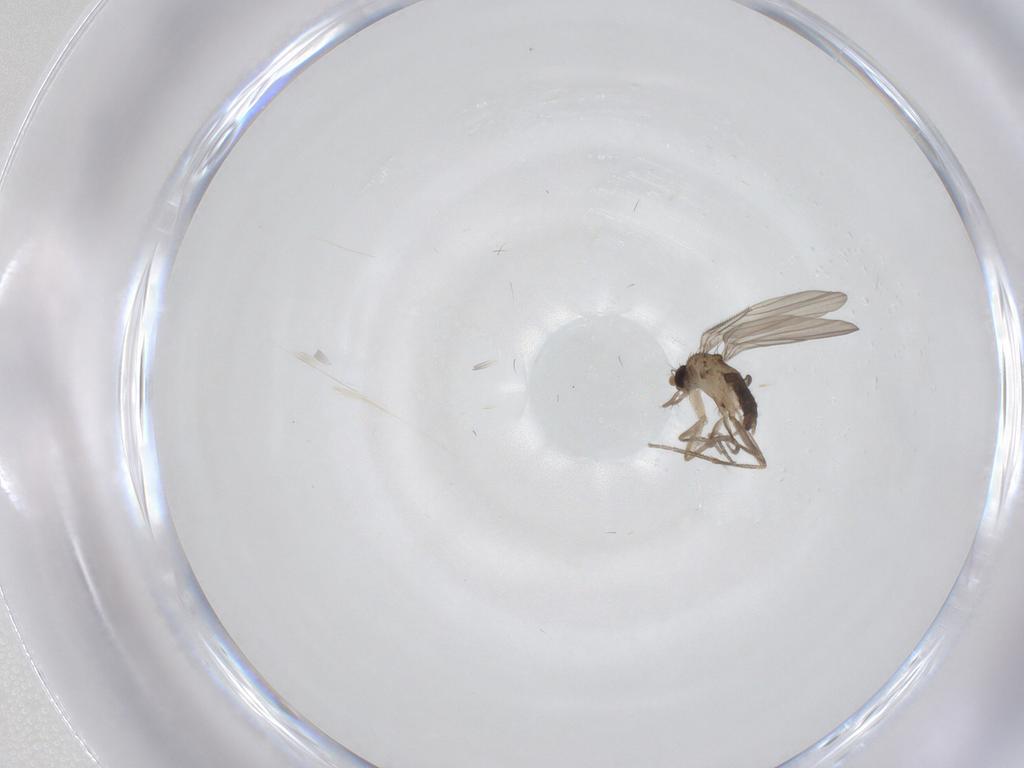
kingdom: Animalia
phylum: Arthropoda
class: Insecta
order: Diptera
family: Phoridae
